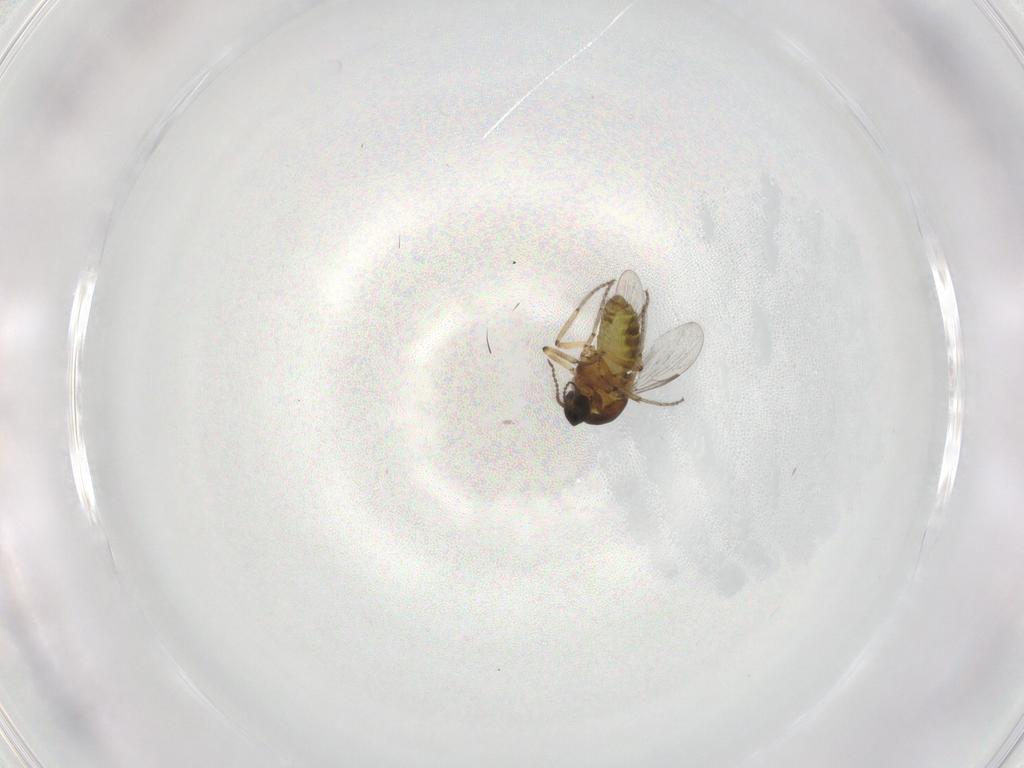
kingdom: Animalia
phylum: Arthropoda
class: Insecta
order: Diptera
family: Ceratopogonidae
